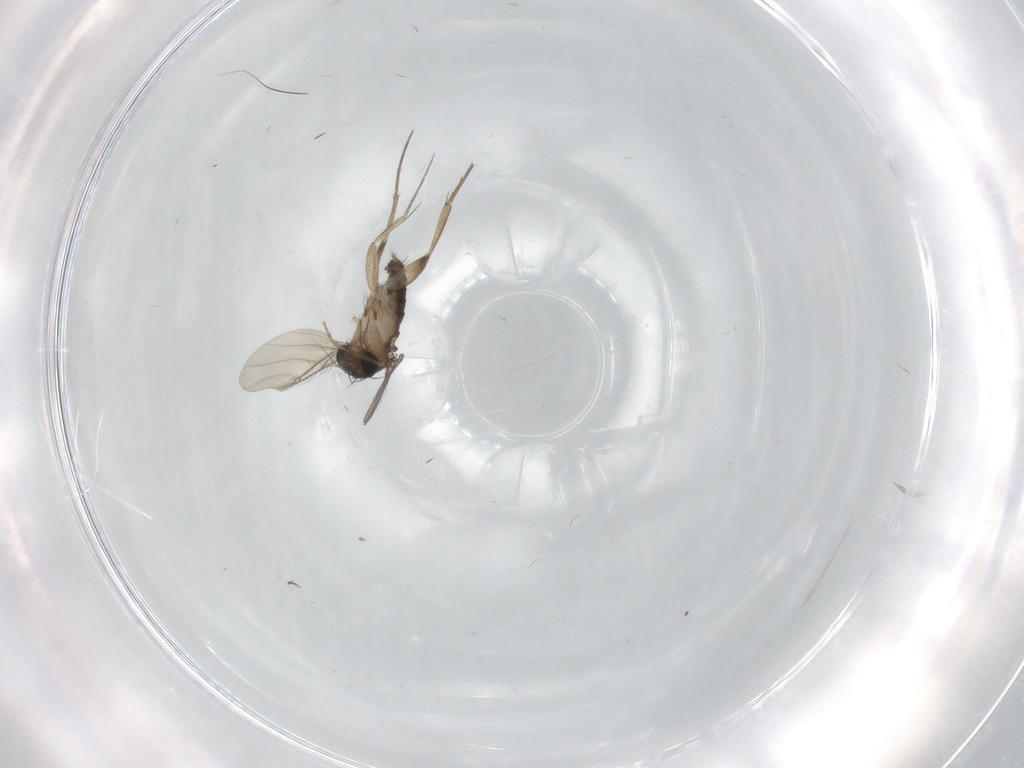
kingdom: Animalia
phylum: Arthropoda
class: Insecta
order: Diptera
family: Phoridae
